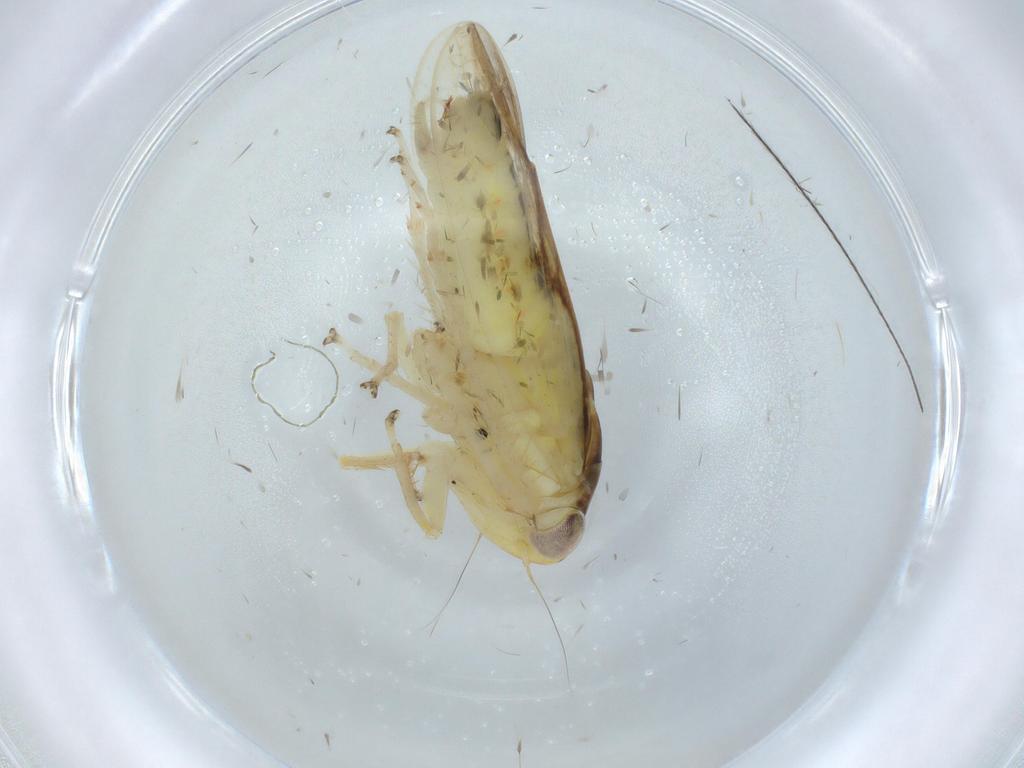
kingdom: Animalia
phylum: Arthropoda
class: Insecta
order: Hemiptera
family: Cicadellidae
